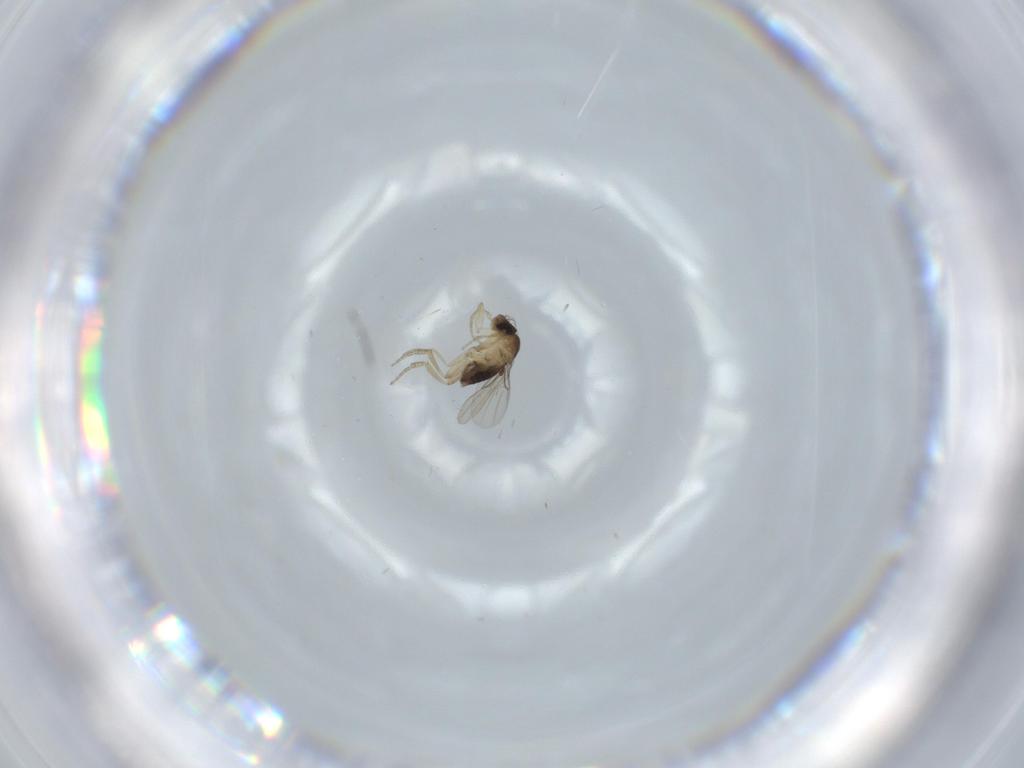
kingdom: Animalia
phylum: Arthropoda
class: Insecta
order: Diptera
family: Phoridae
